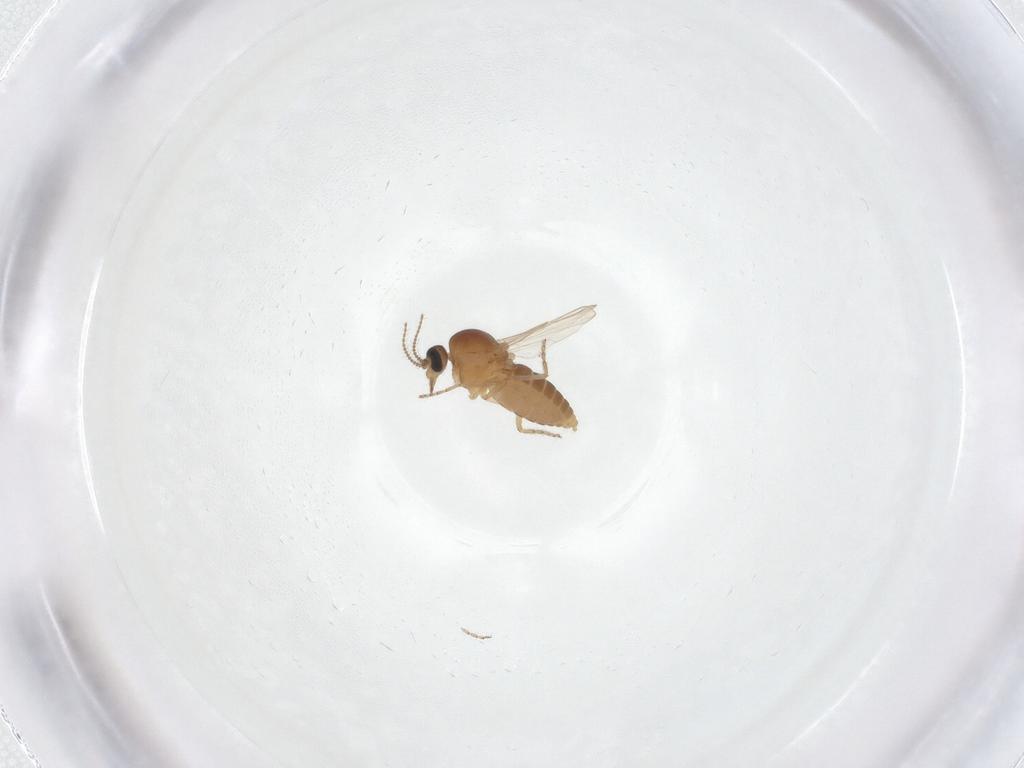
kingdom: Animalia
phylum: Arthropoda
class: Insecta
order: Diptera
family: Ceratopogonidae
